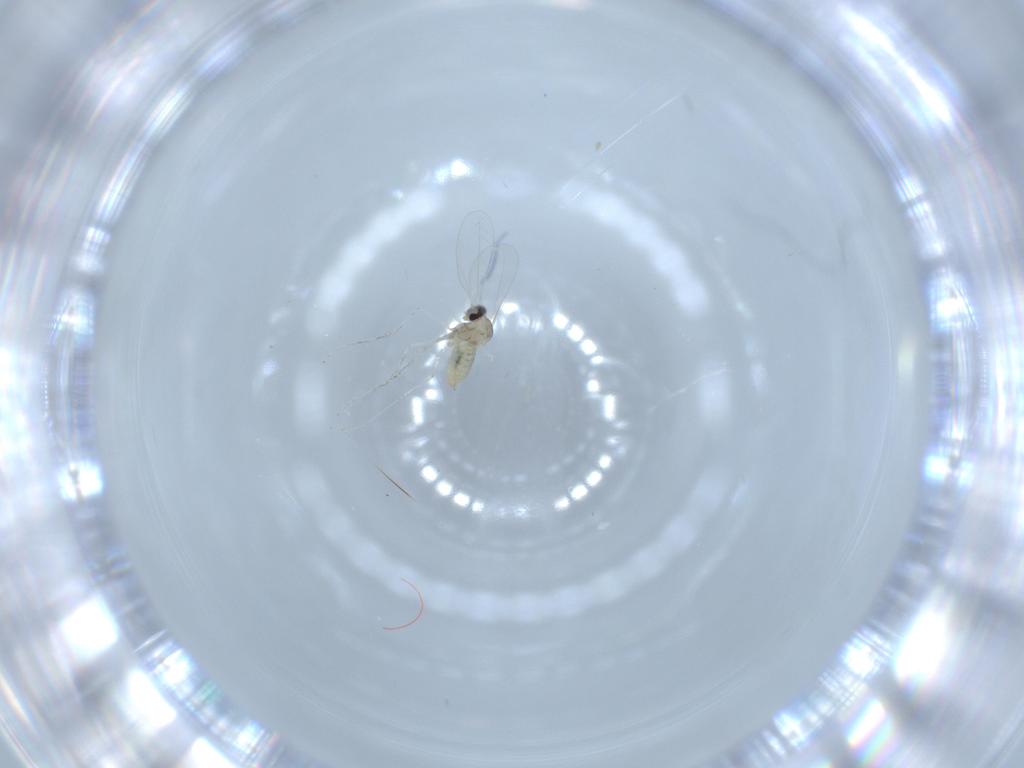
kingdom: Animalia
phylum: Arthropoda
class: Insecta
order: Diptera
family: Cecidomyiidae
